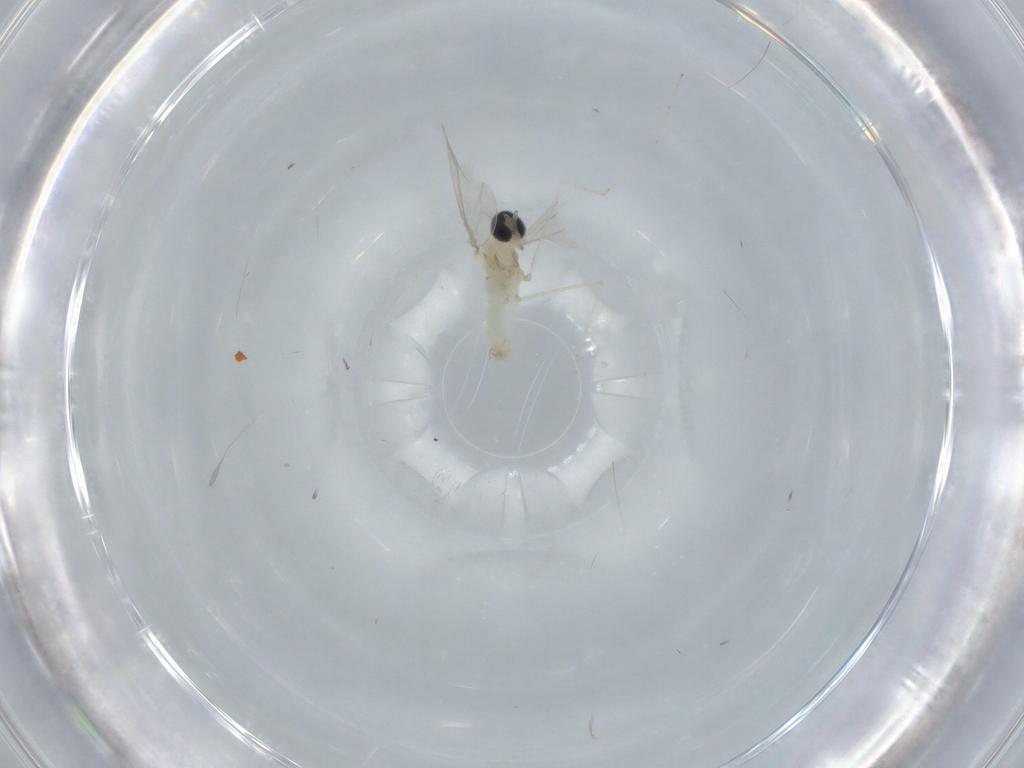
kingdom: Animalia
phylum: Arthropoda
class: Insecta
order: Diptera
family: Cecidomyiidae
